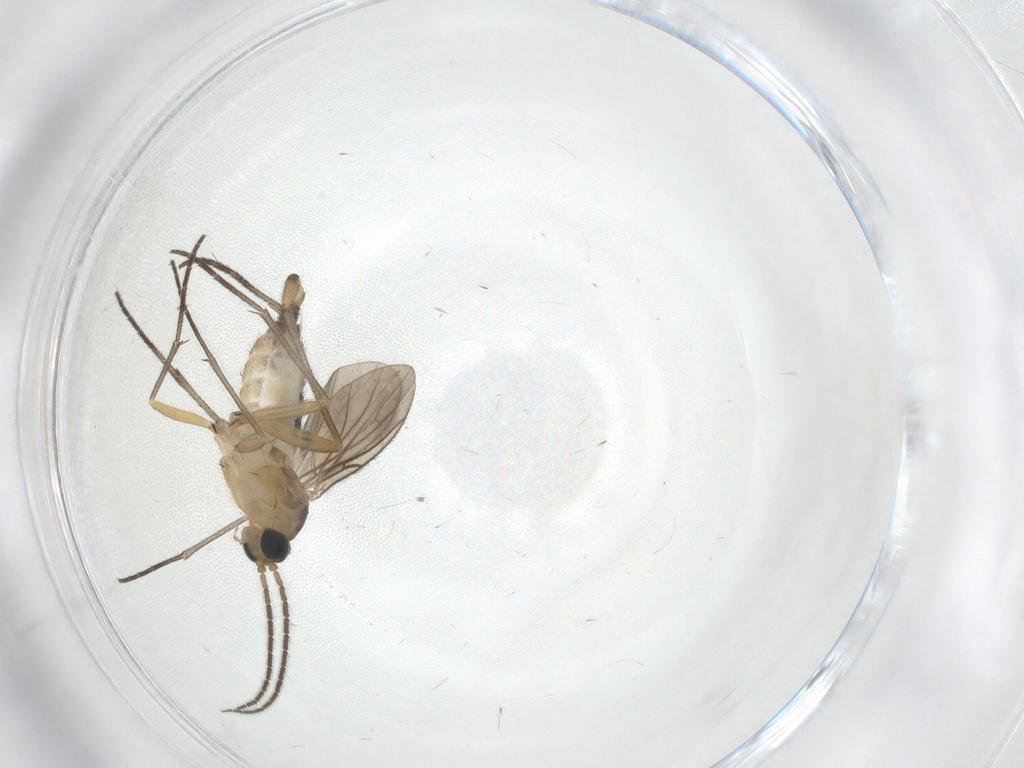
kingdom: Animalia
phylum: Arthropoda
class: Insecta
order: Diptera
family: Sciaridae
